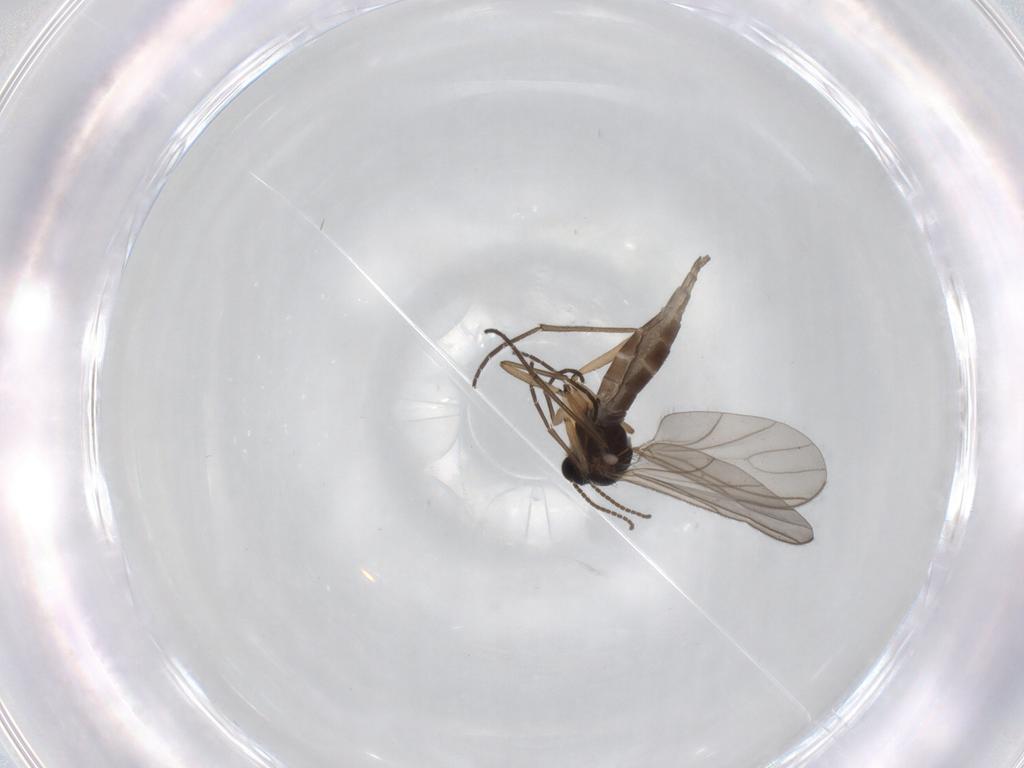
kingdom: Animalia
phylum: Arthropoda
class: Insecta
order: Diptera
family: Sciaridae
